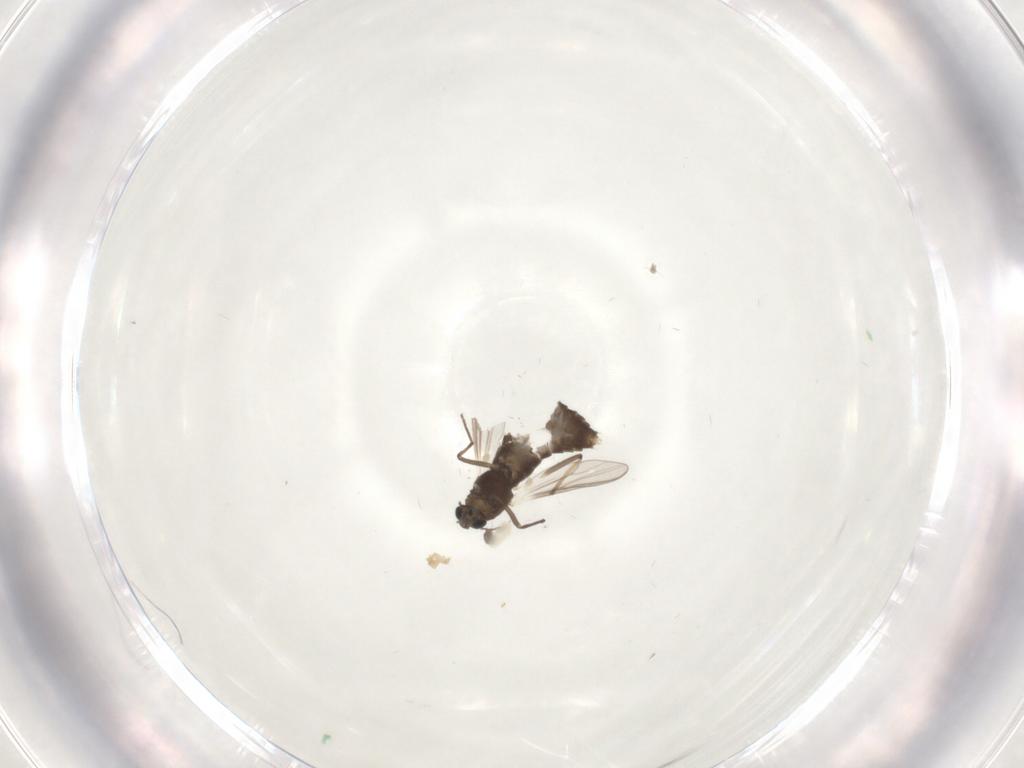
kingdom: Animalia
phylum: Arthropoda
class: Insecta
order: Diptera
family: Chironomidae
